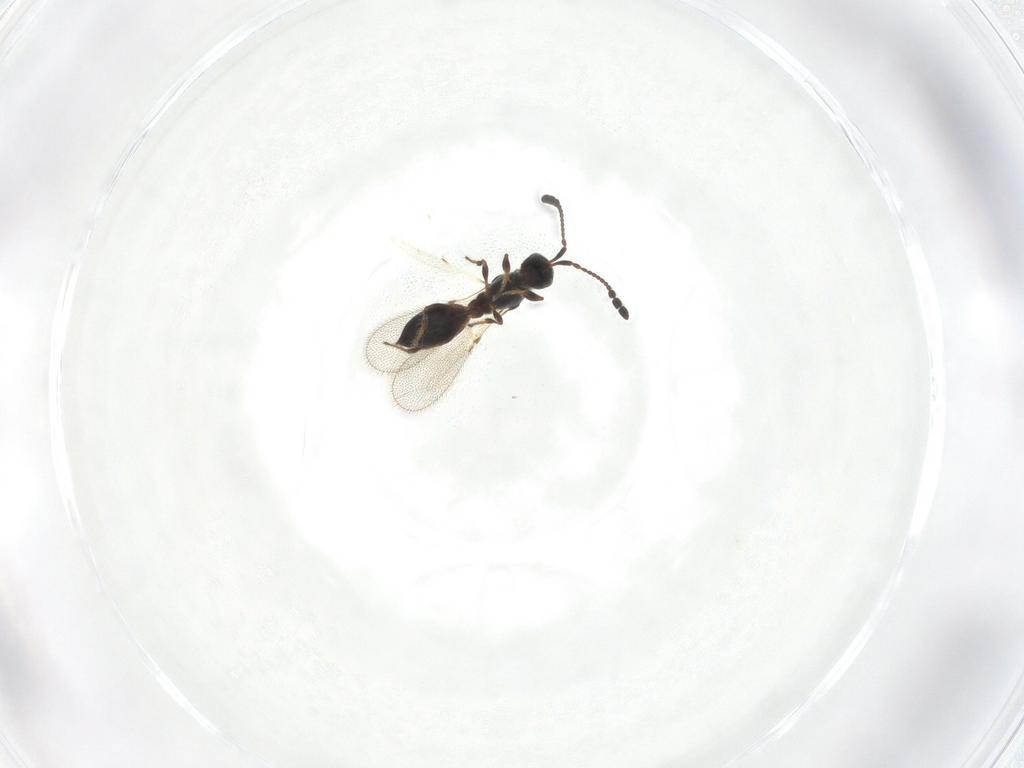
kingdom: Animalia
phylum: Arthropoda
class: Insecta
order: Hymenoptera
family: Diapriidae
